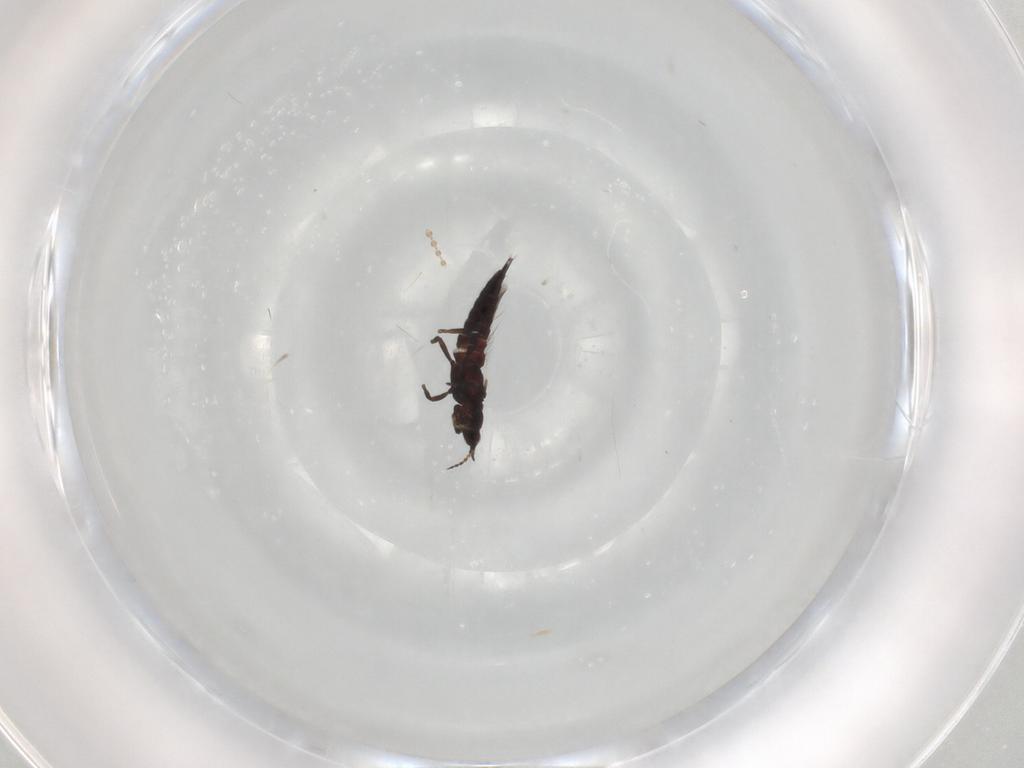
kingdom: Animalia
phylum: Arthropoda
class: Insecta
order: Thysanoptera
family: Phlaeothripidae
